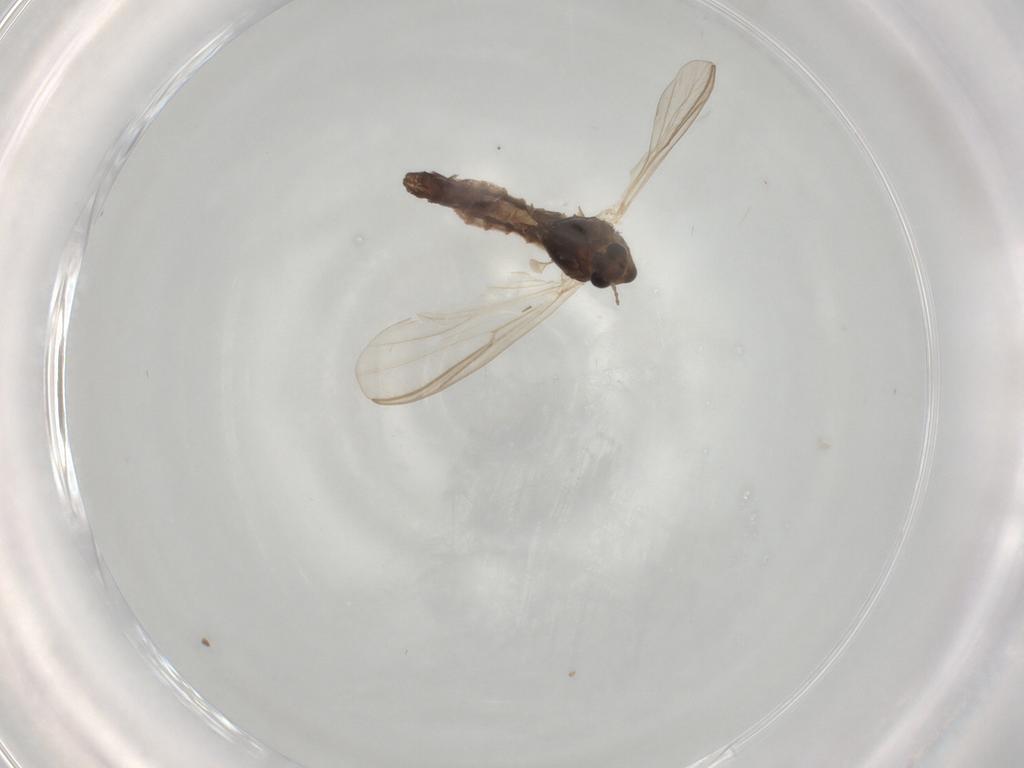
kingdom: Animalia
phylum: Arthropoda
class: Insecta
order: Diptera
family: Chironomidae
